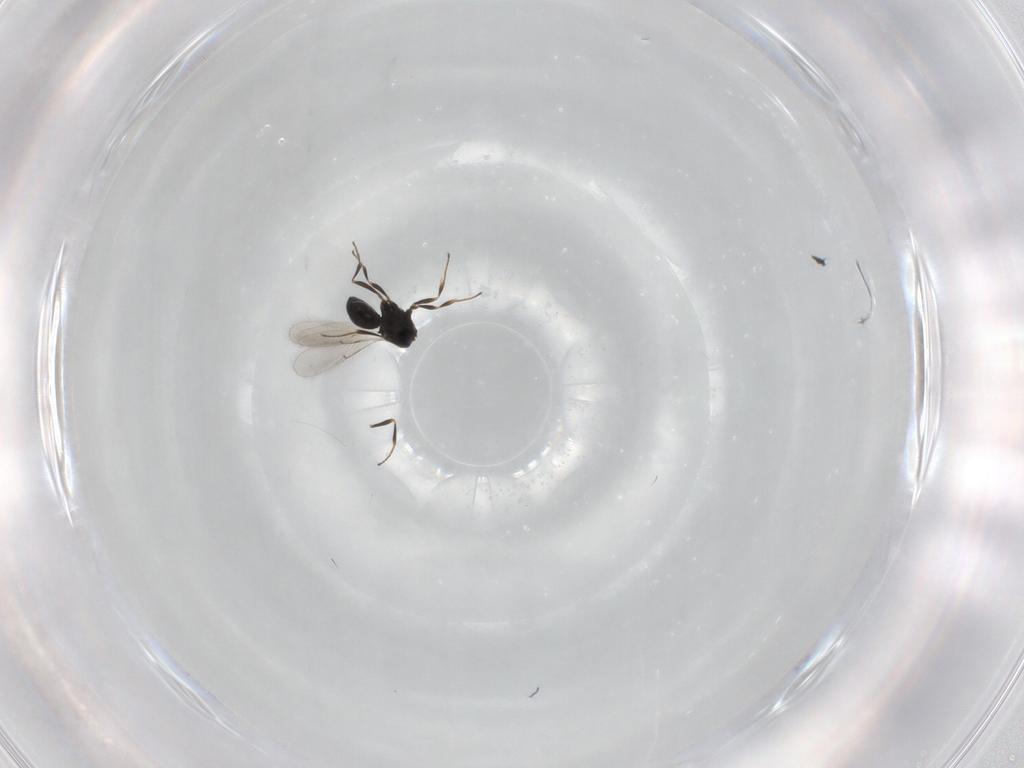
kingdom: Animalia
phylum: Arthropoda
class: Insecta
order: Hymenoptera
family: Scelionidae
